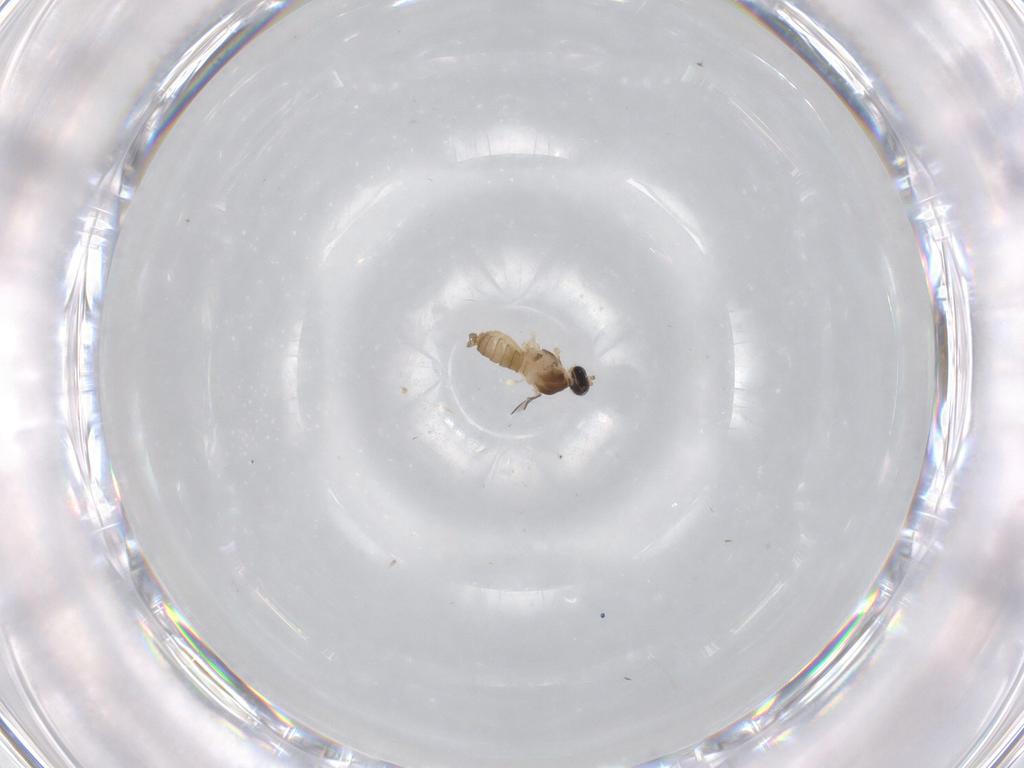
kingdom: Animalia
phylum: Arthropoda
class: Insecta
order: Diptera
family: Cecidomyiidae
